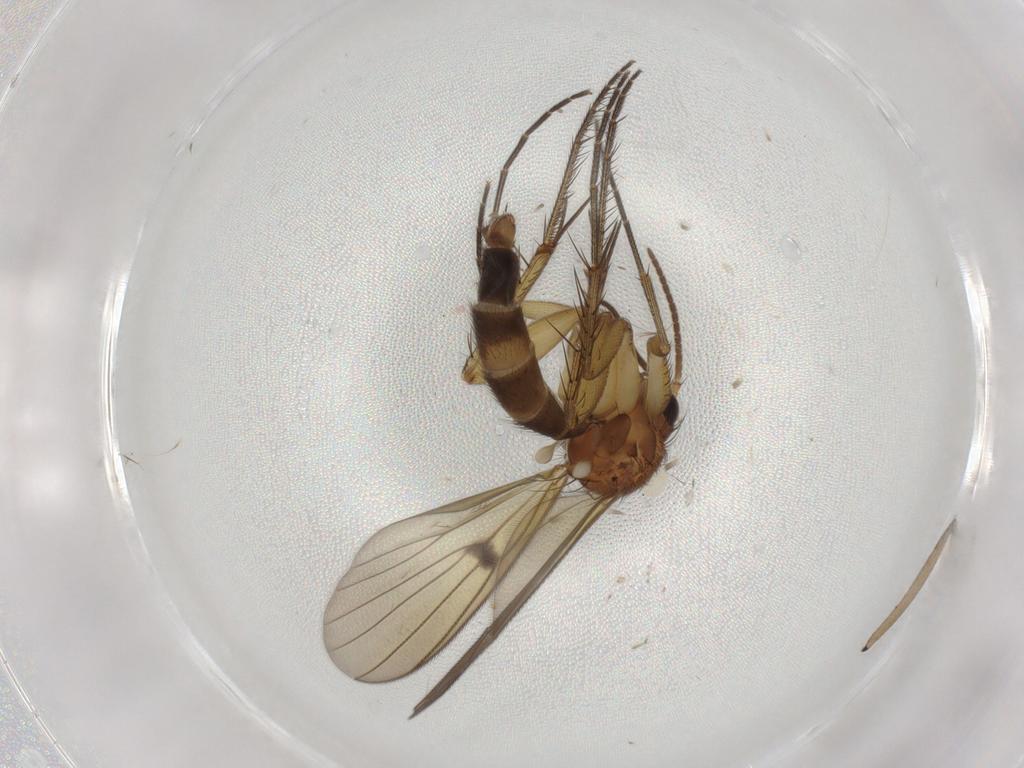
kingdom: Animalia
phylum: Arthropoda
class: Insecta
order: Diptera
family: Sciaridae
